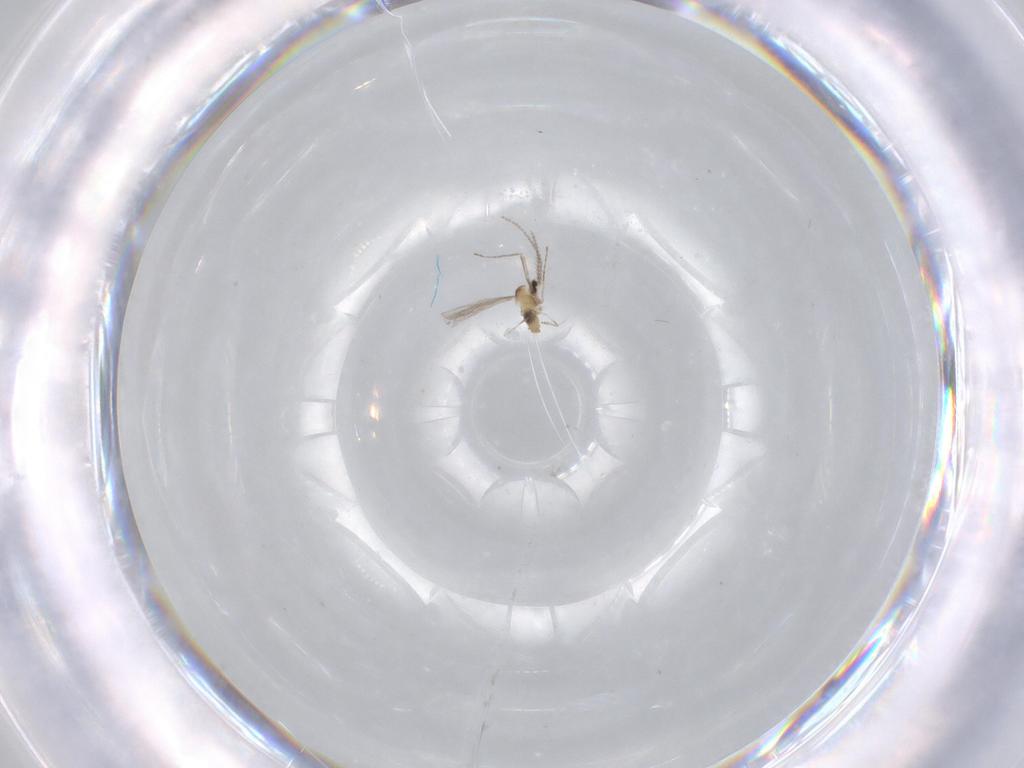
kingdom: Animalia
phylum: Arthropoda
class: Insecta
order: Diptera
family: Cecidomyiidae
